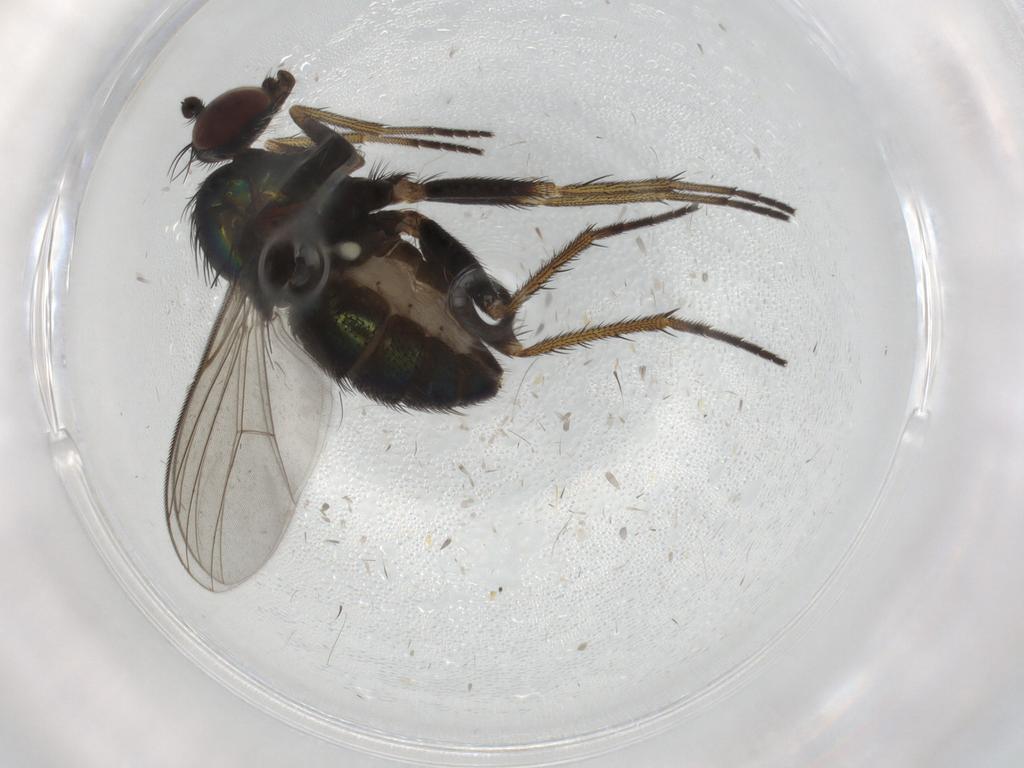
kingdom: Animalia
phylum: Arthropoda
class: Insecta
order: Diptera
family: Dolichopodidae
